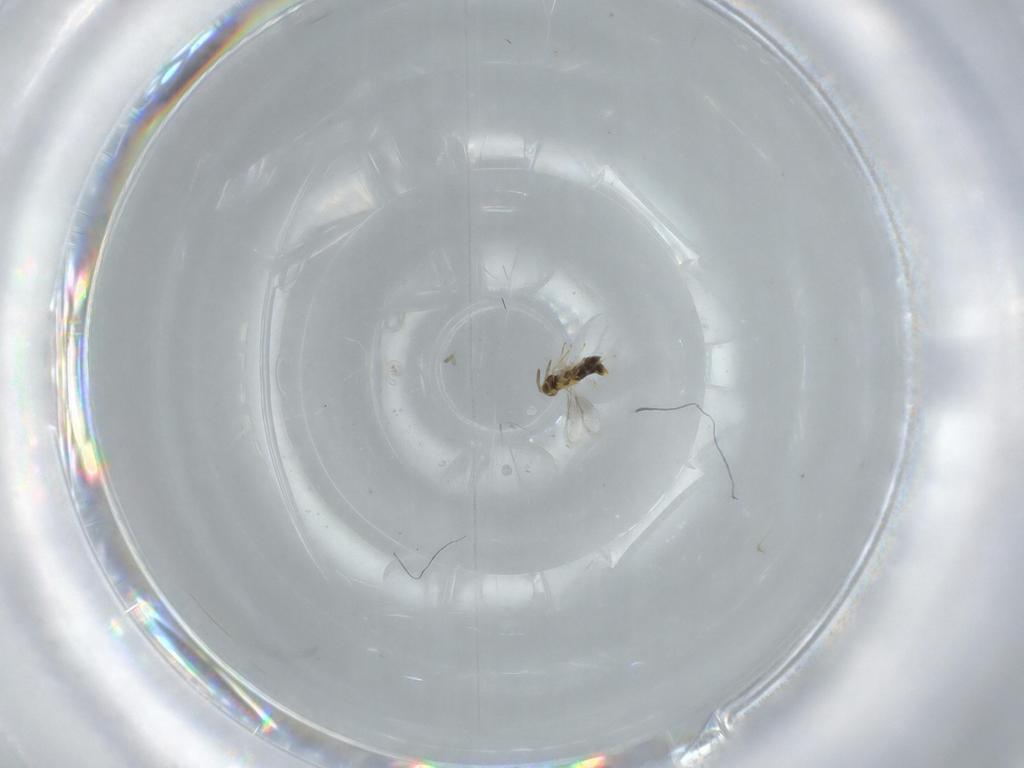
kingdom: Animalia
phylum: Arthropoda
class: Insecta
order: Hymenoptera
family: Aphelinidae
